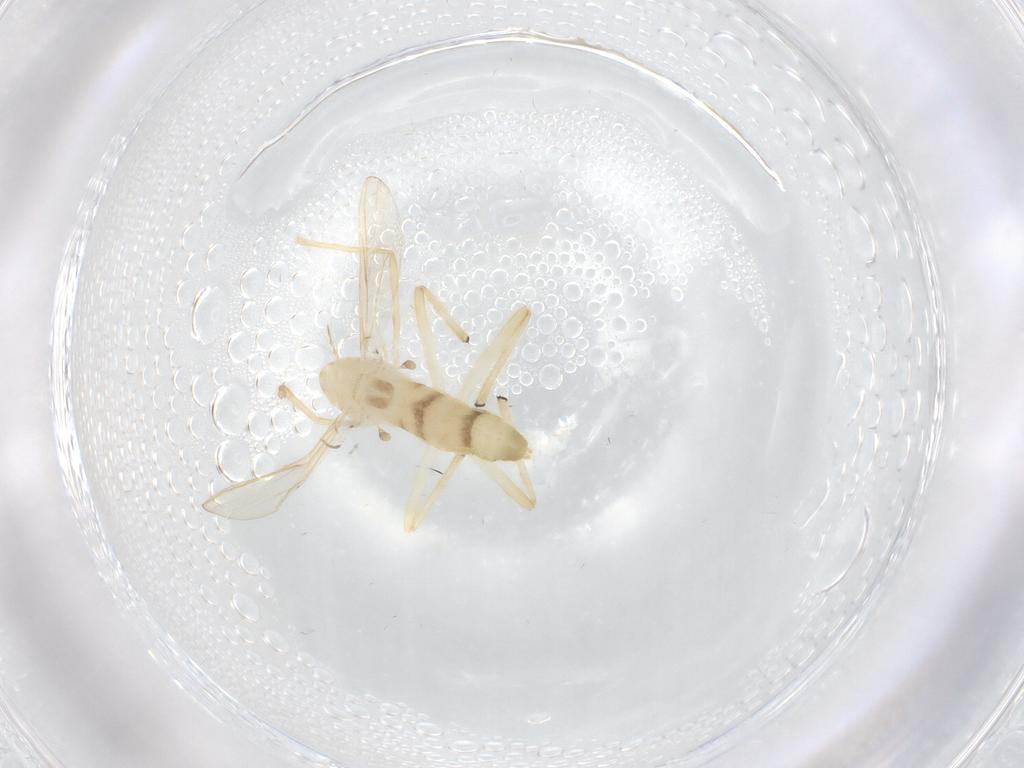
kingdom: Animalia
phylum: Arthropoda
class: Insecta
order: Diptera
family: Chironomidae
